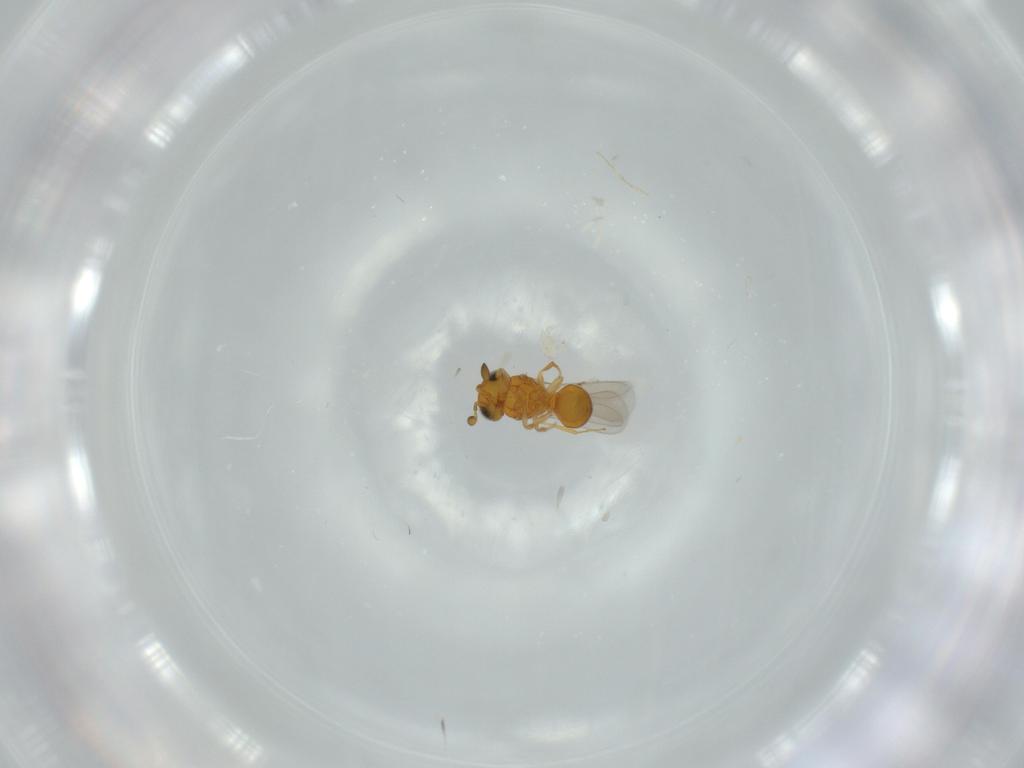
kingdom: Animalia
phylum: Arthropoda
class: Insecta
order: Hymenoptera
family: Scelionidae
